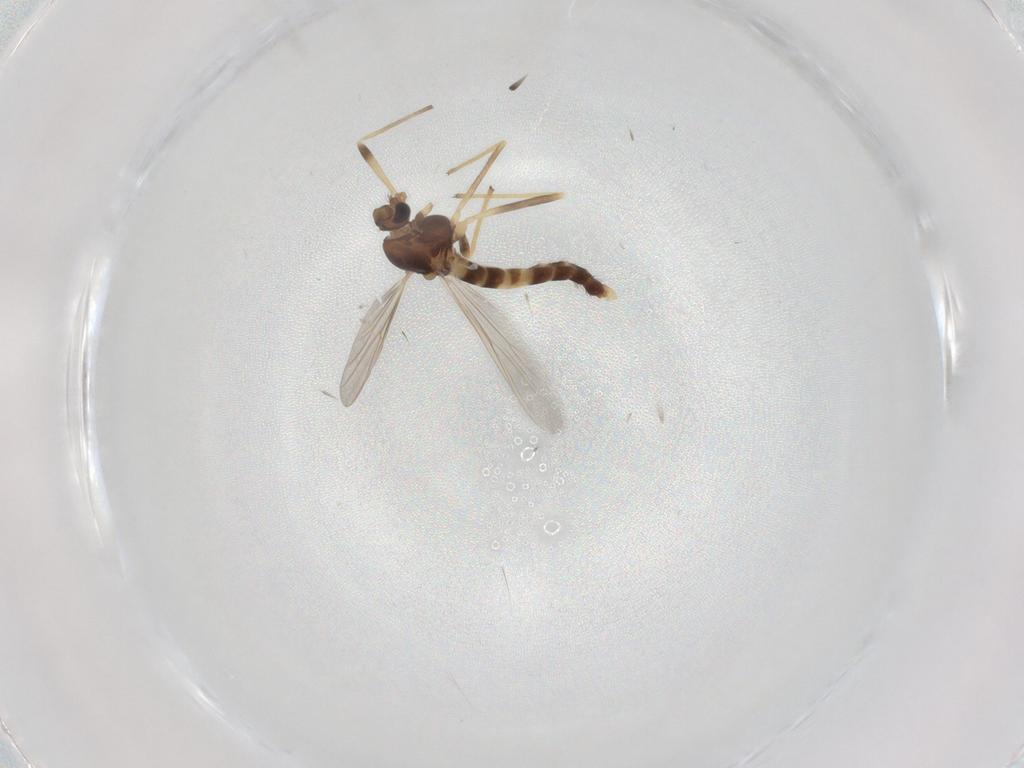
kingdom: Animalia
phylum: Arthropoda
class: Insecta
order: Diptera
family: Chironomidae
